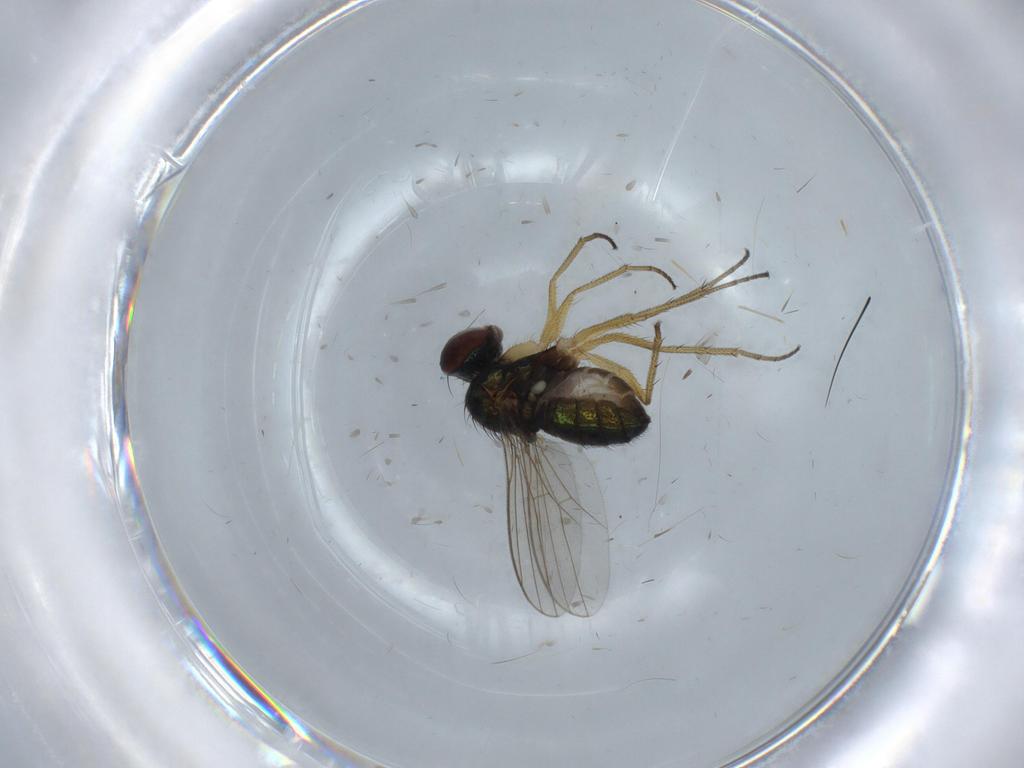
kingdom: Animalia
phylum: Arthropoda
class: Insecta
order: Diptera
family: Dolichopodidae
